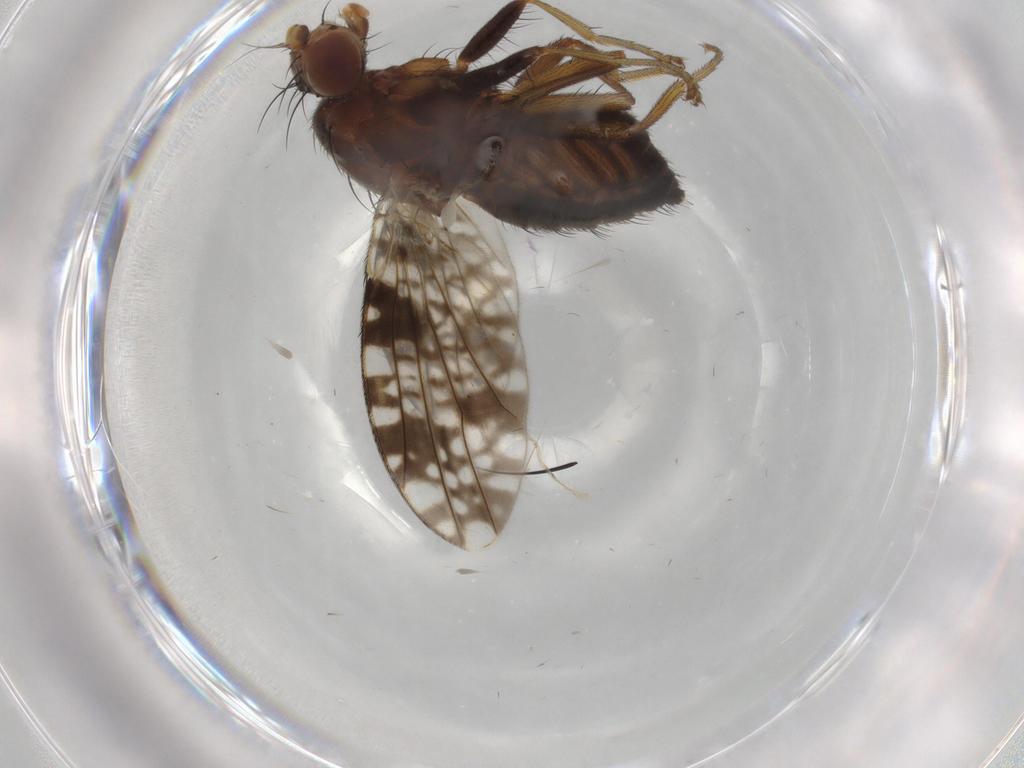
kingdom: Animalia
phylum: Arthropoda
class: Insecta
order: Diptera
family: Tephritidae
